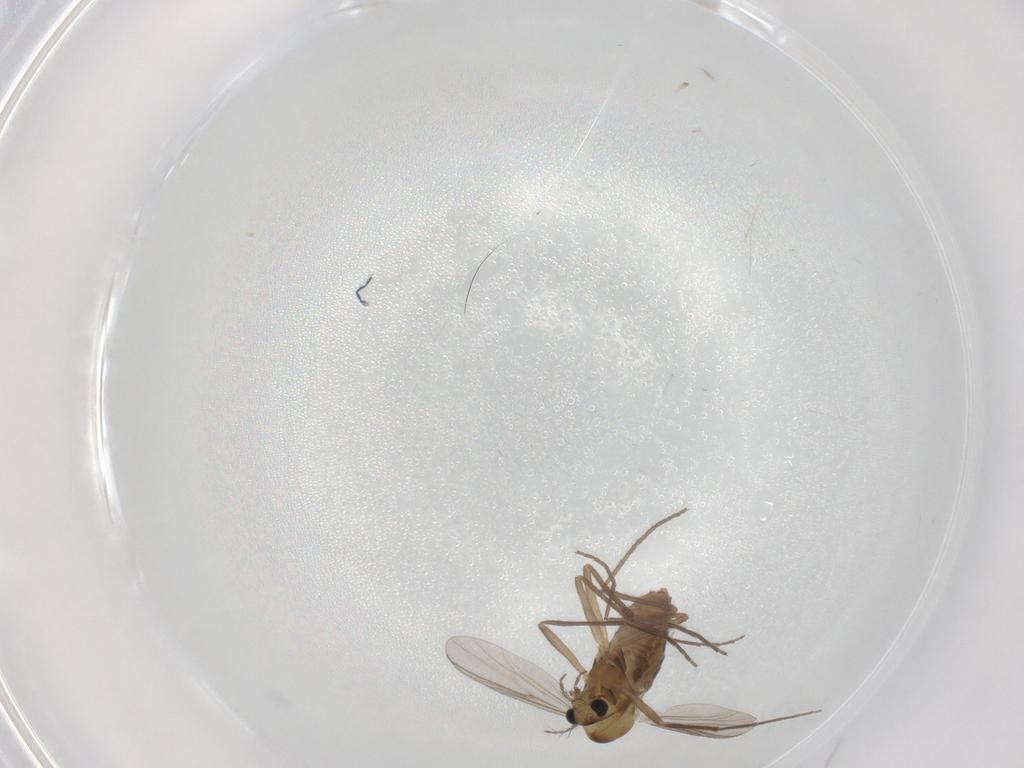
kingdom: Animalia
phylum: Arthropoda
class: Insecta
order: Diptera
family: Chironomidae
